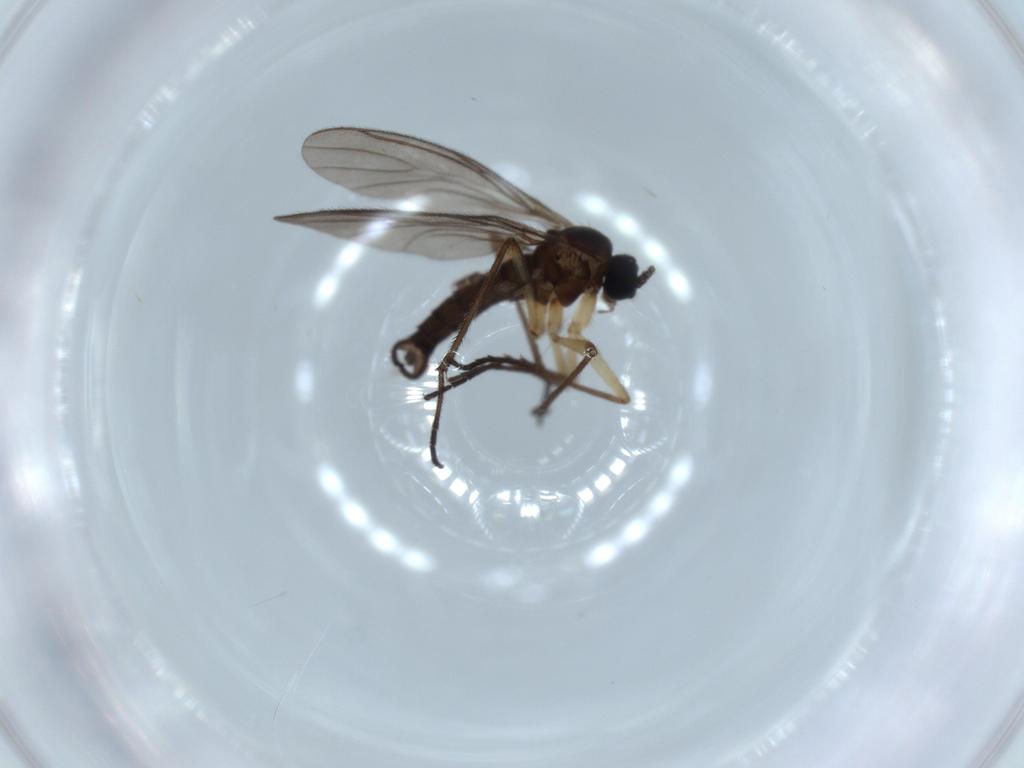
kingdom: Animalia
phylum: Arthropoda
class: Insecta
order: Diptera
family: Sciaridae
